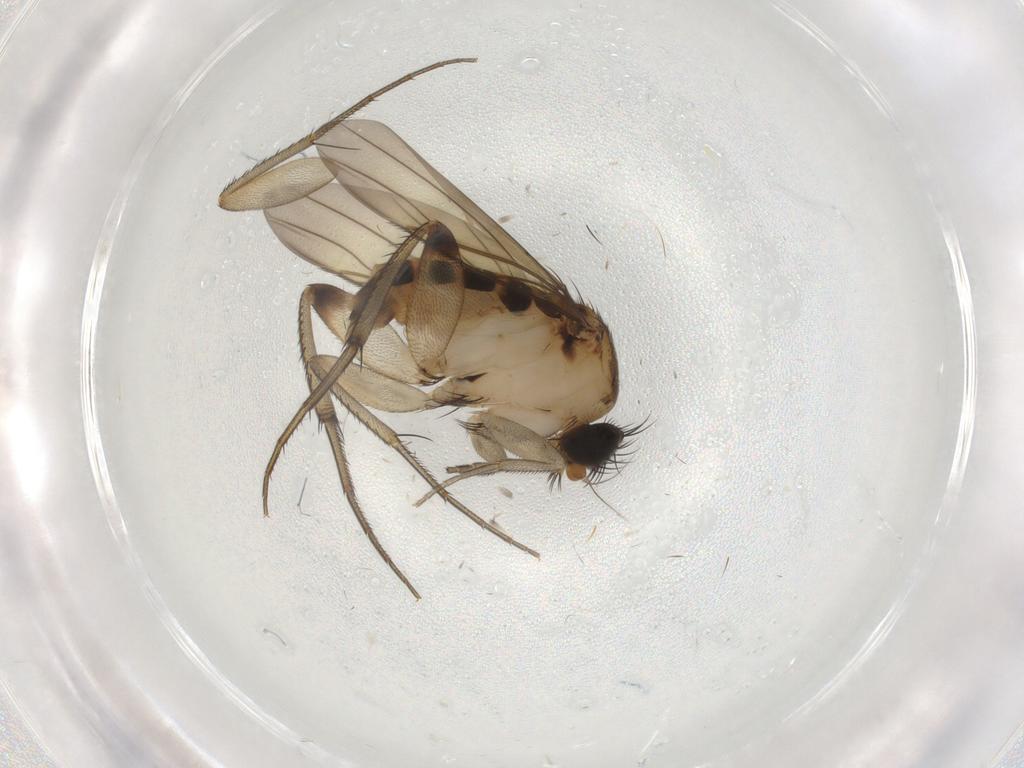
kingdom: Animalia
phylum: Arthropoda
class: Insecta
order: Diptera
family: Phoridae
